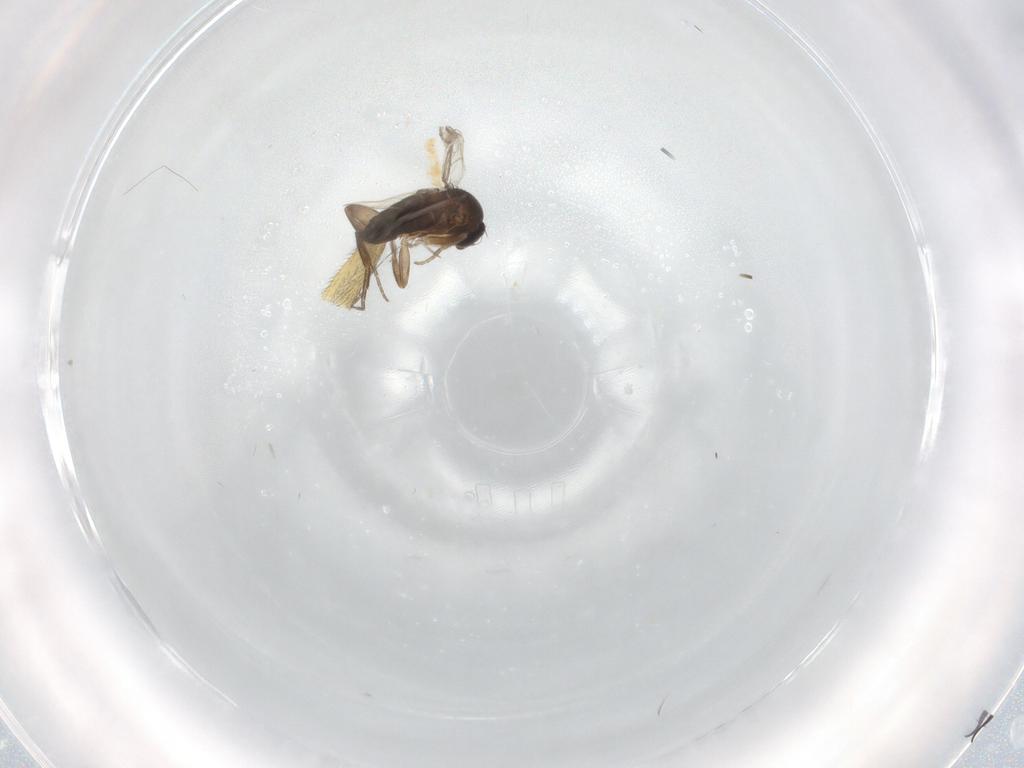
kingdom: Animalia
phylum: Arthropoda
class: Insecta
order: Diptera
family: Phoridae
